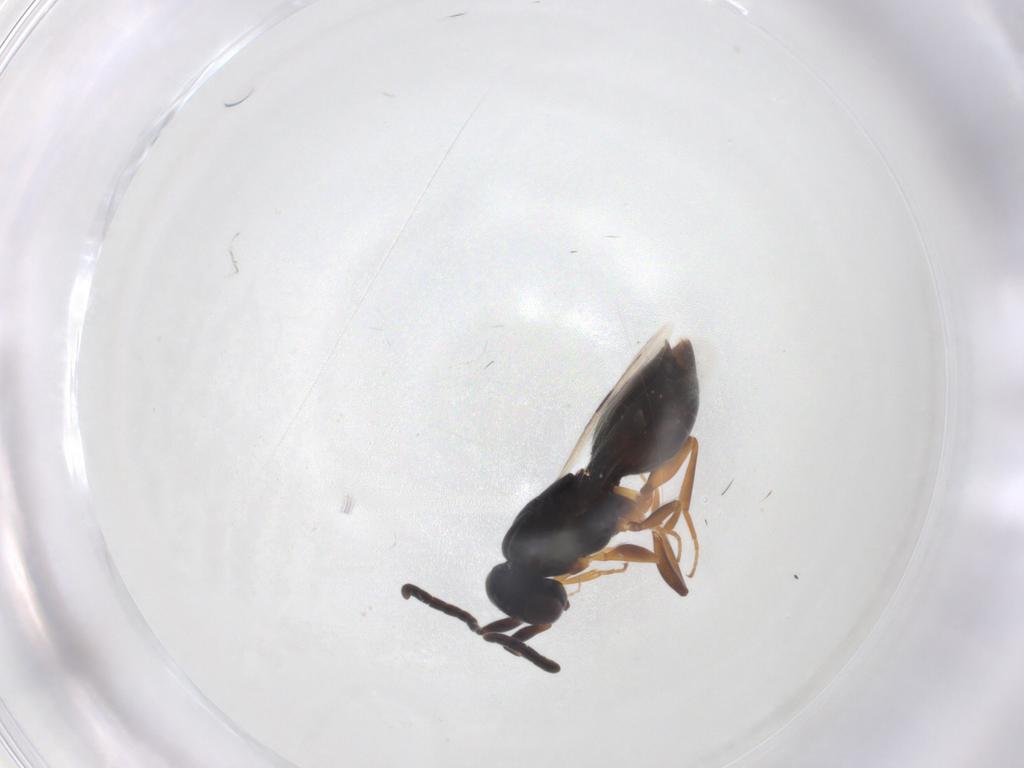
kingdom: Animalia
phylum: Arthropoda
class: Insecta
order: Hymenoptera
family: Megaspilidae
